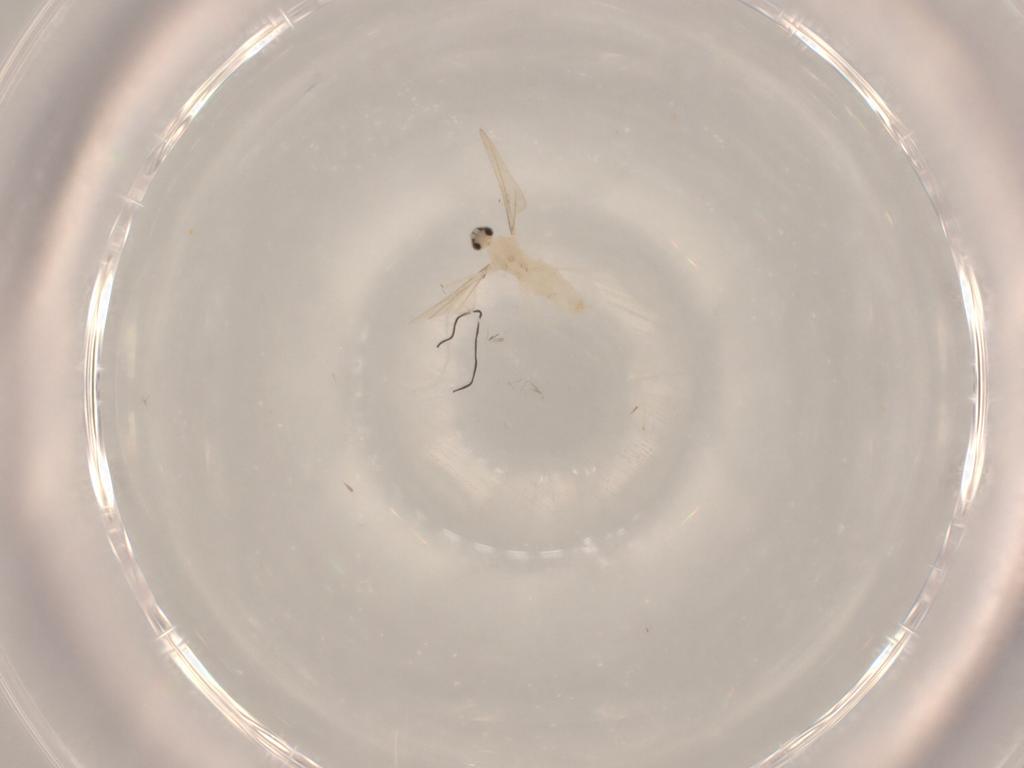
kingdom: Animalia
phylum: Arthropoda
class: Insecta
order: Diptera
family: Cecidomyiidae
